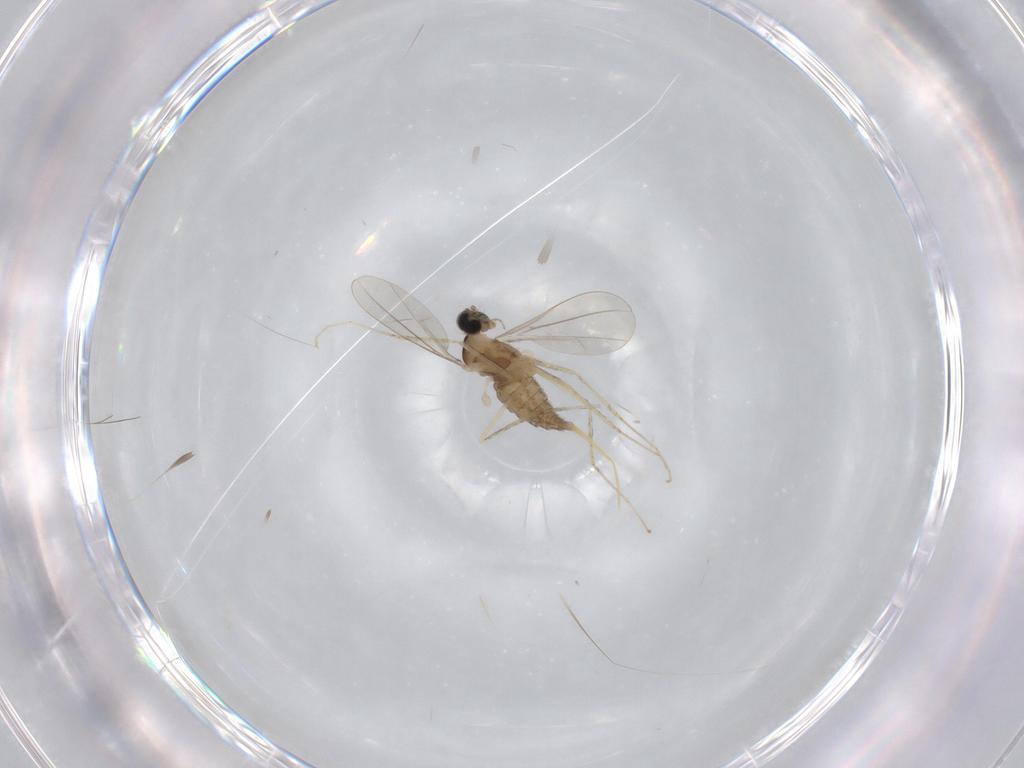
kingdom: Animalia
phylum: Arthropoda
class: Insecta
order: Diptera
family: Cecidomyiidae
